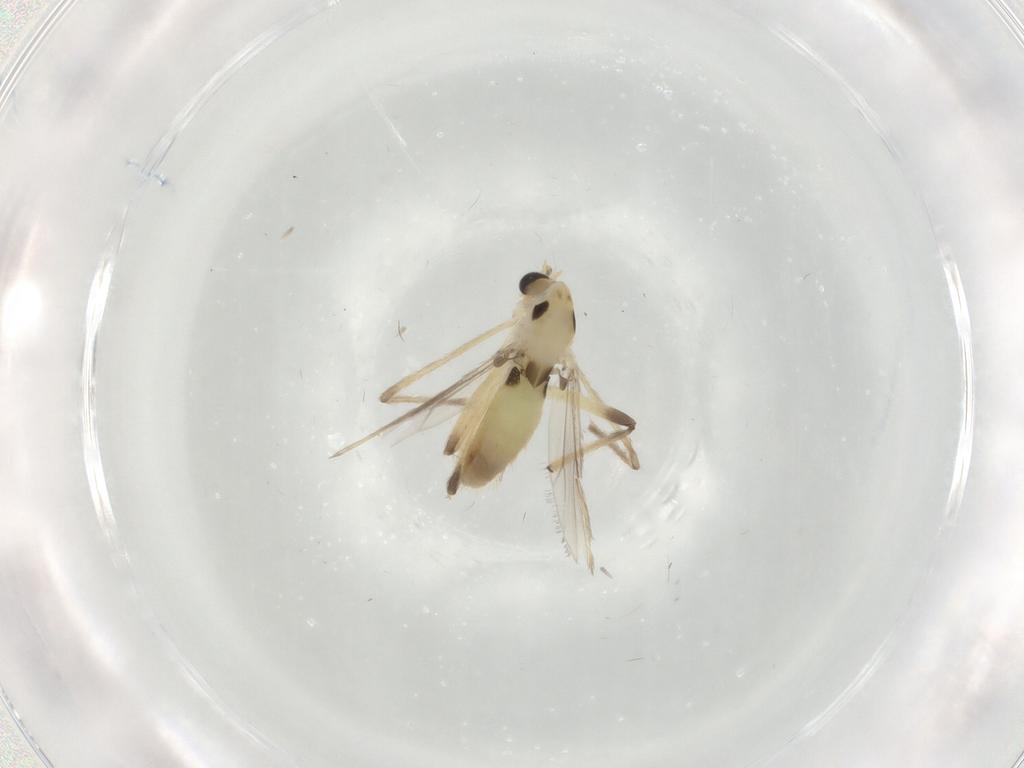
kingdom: Animalia
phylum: Arthropoda
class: Insecta
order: Diptera
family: Chironomidae
